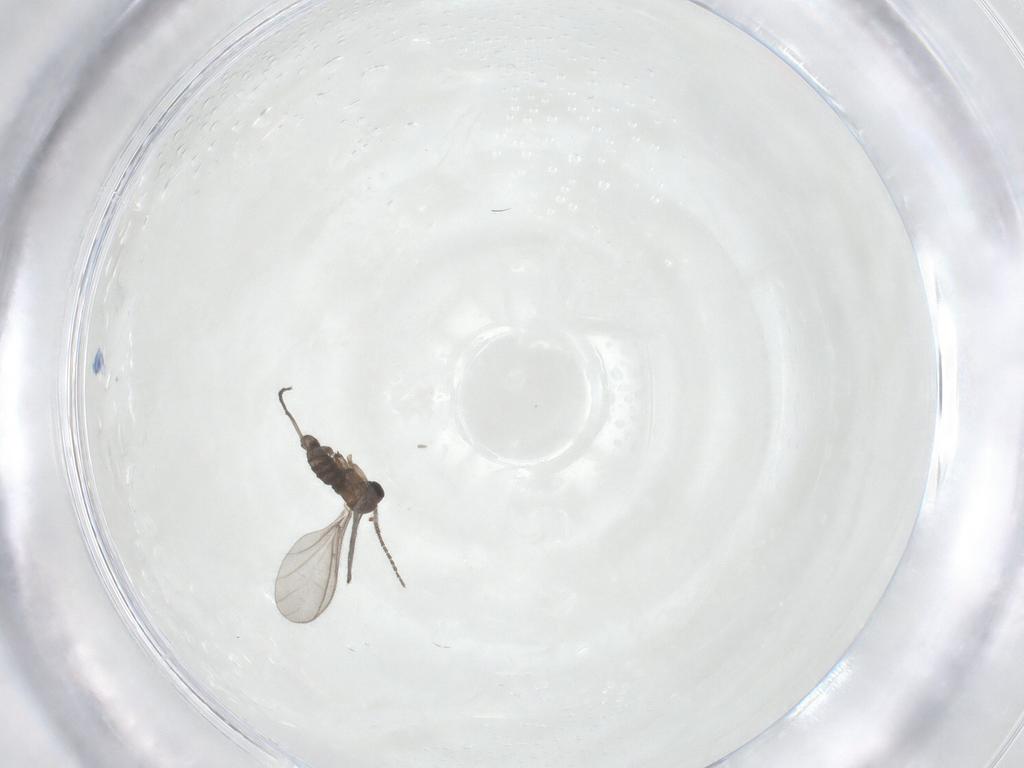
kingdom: Animalia
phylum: Arthropoda
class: Insecta
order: Diptera
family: Sciaridae
